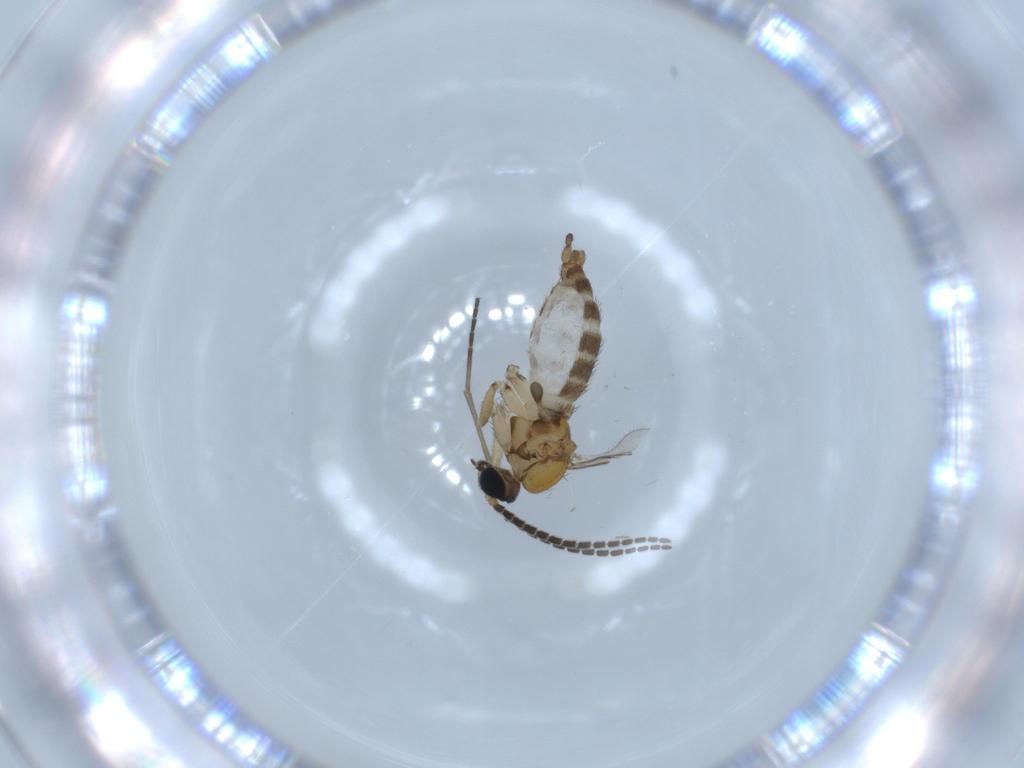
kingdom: Animalia
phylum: Arthropoda
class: Insecta
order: Diptera
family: Sciaridae
